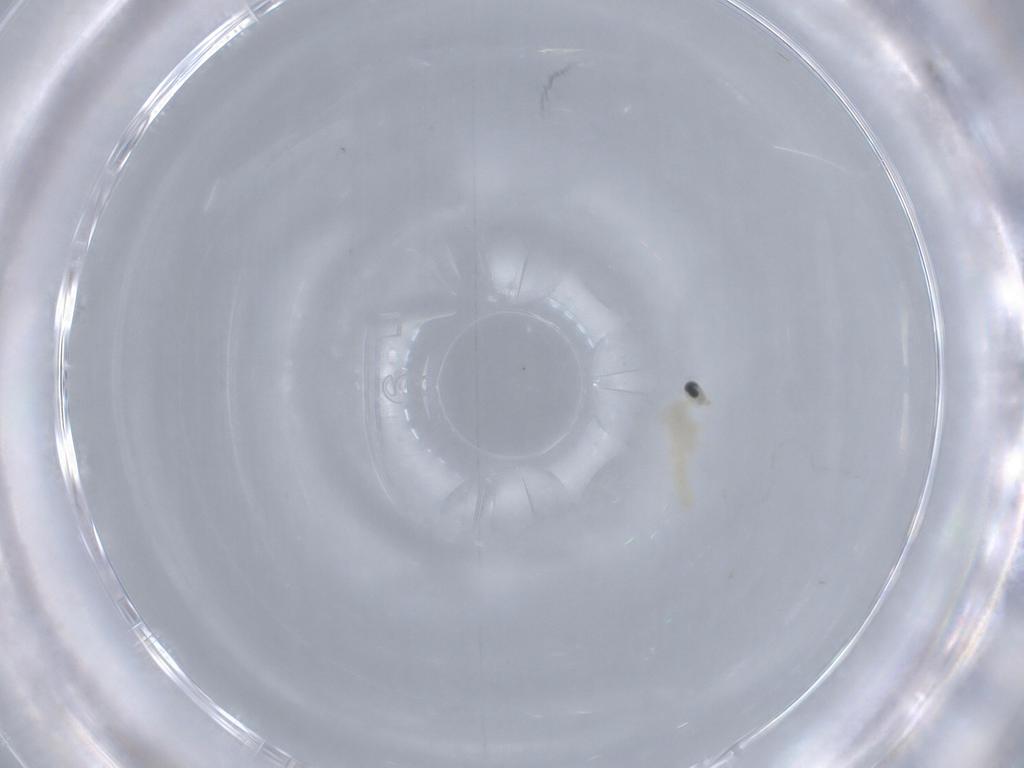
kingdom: Animalia
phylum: Arthropoda
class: Insecta
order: Diptera
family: Cecidomyiidae
